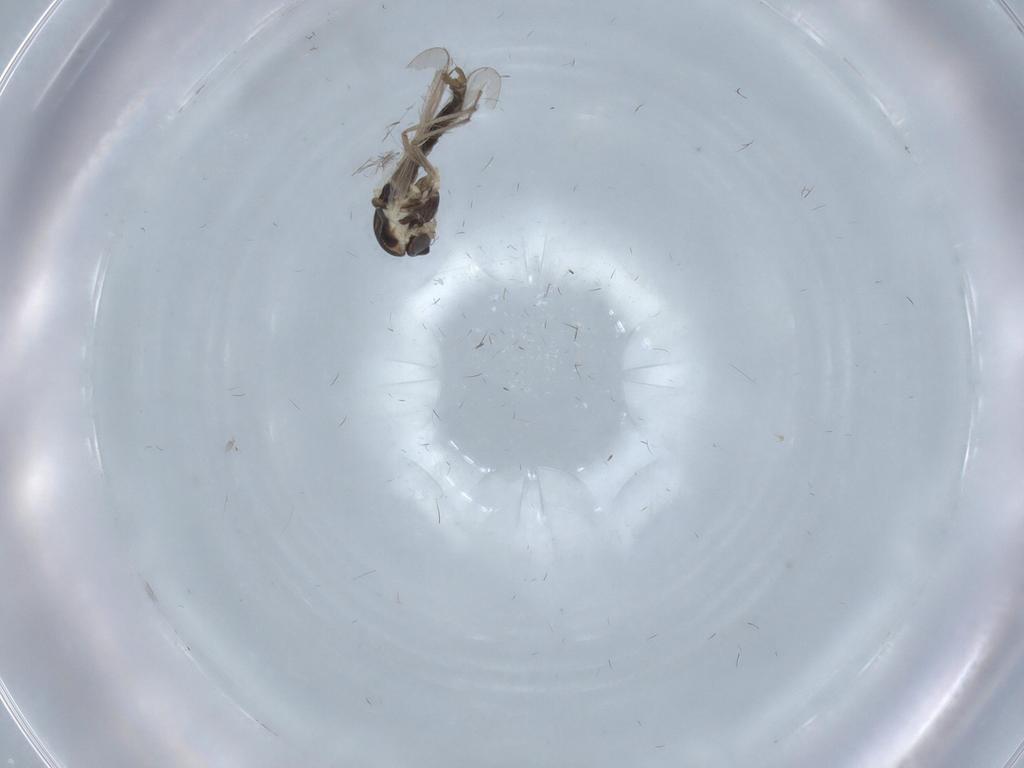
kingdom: Animalia
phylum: Arthropoda
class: Insecta
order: Diptera
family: Chironomidae
